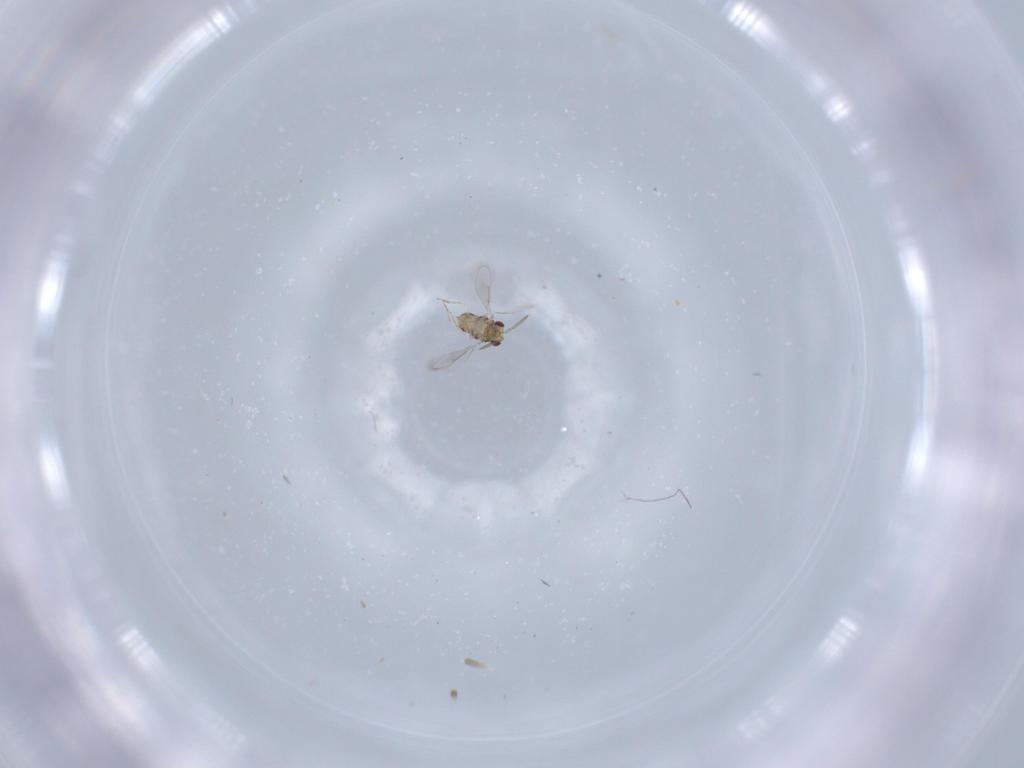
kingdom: Animalia
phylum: Arthropoda
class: Insecta
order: Hymenoptera
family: Aphelinidae
